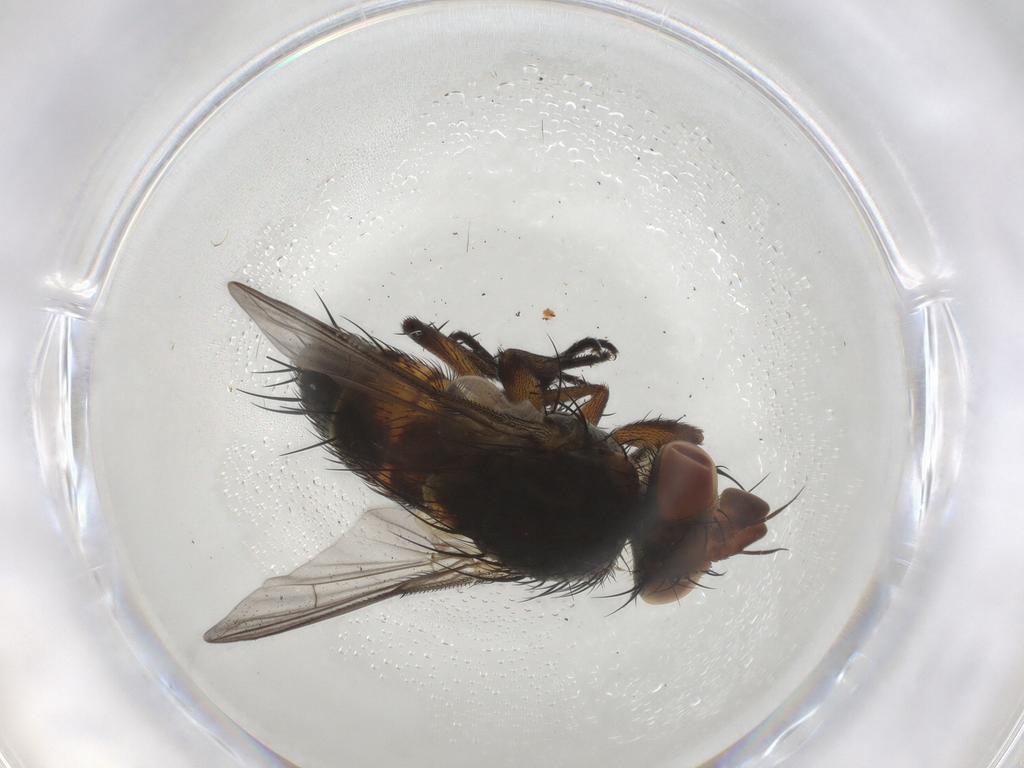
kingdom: Animalia
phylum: Arthropoda
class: Insecta
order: Diptera
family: Tachinidae
